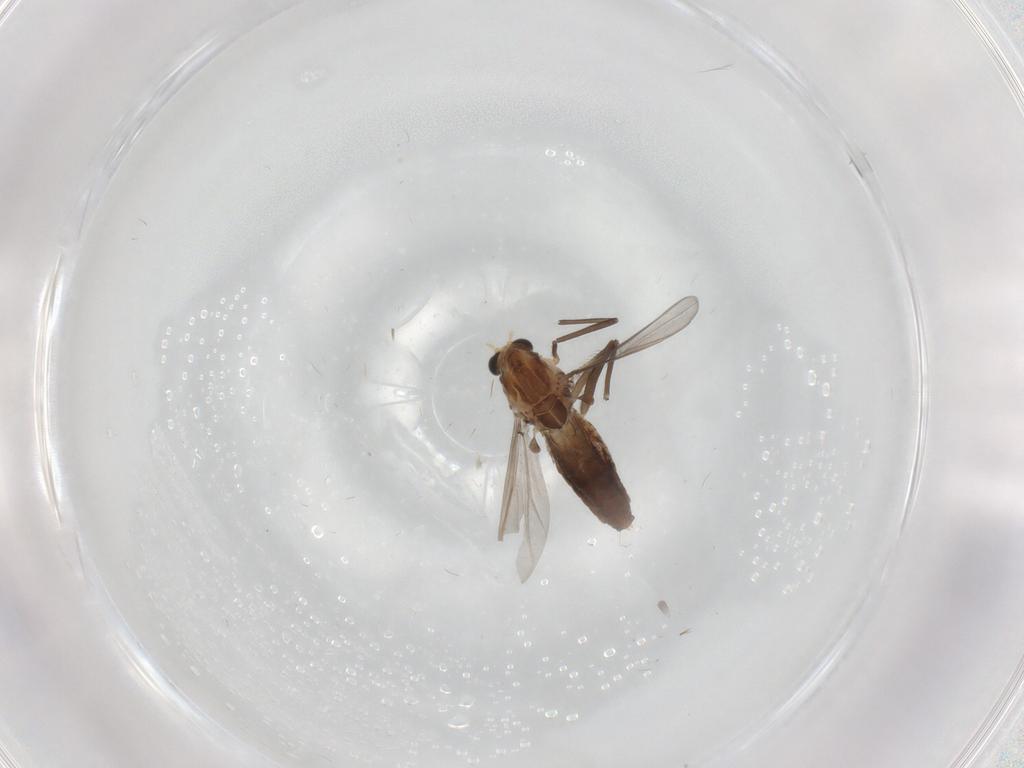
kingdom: Animalia
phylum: Arthropoda
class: Insecta
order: Diptera
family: Chironomidae
